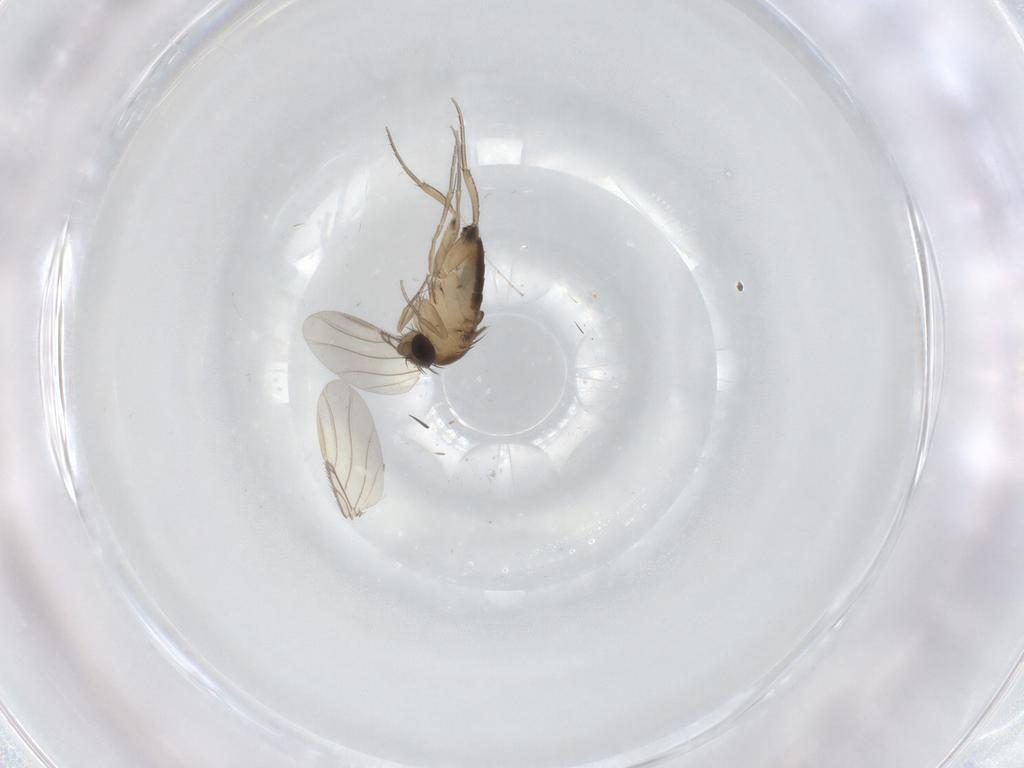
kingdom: Animalia
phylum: Arthropoda
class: Insecta
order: Diptera
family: Phoridae
